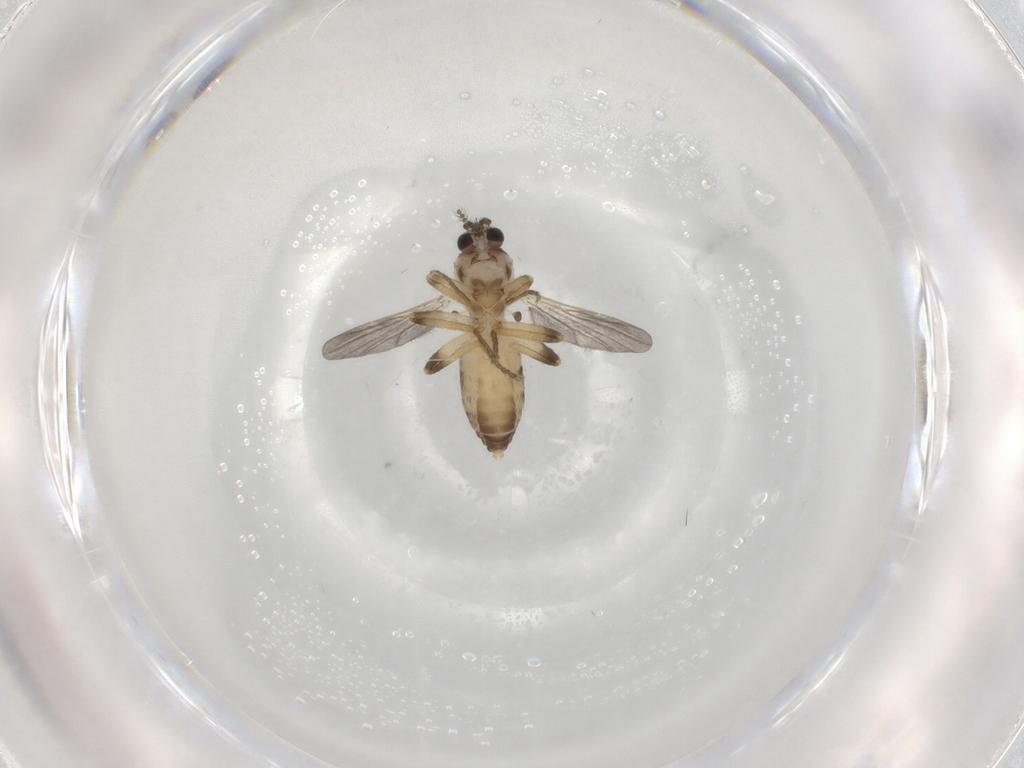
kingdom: Animalia
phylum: Arthropoda
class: Insecta
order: Diptera
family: Ceratopogonidae
